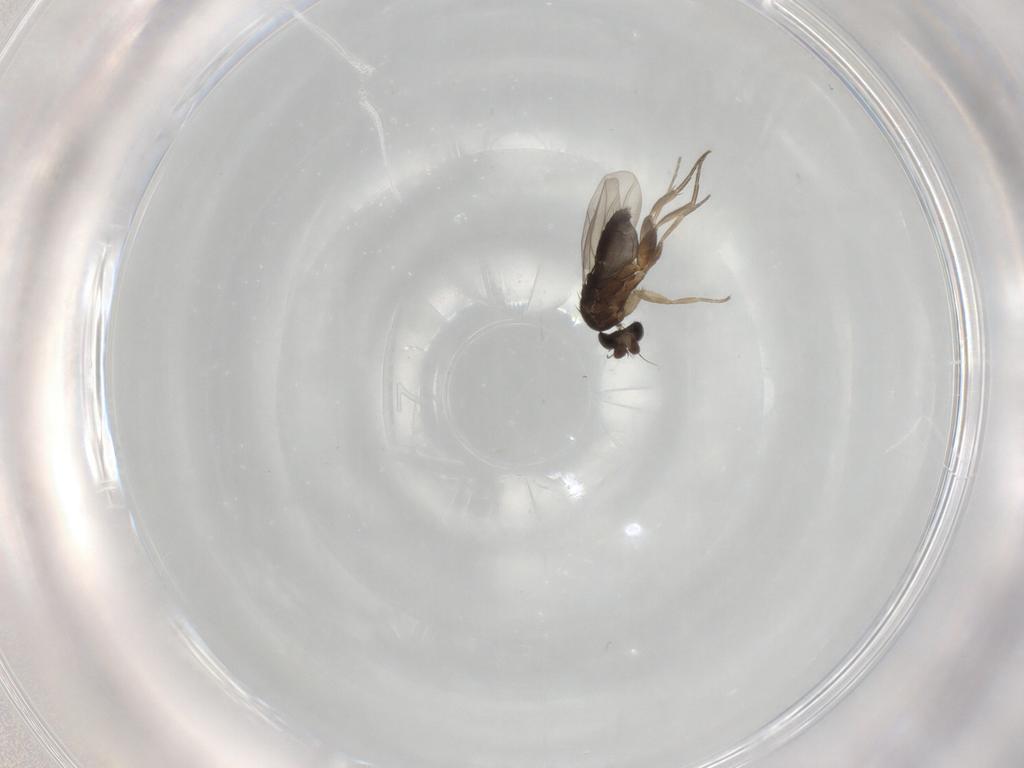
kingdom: Animalia
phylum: Arthropoda
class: Insecta
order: Diptera
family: Phoridae
